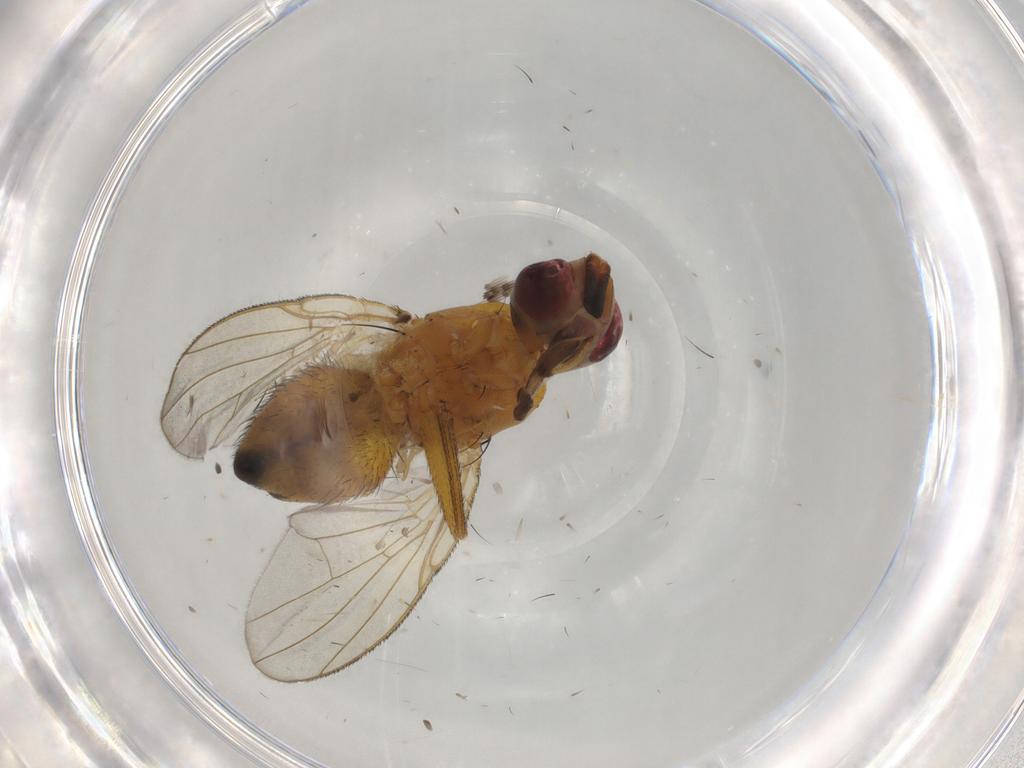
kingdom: Animalia
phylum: Arthropoda
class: Insecta
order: Diptera
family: Muscidae
